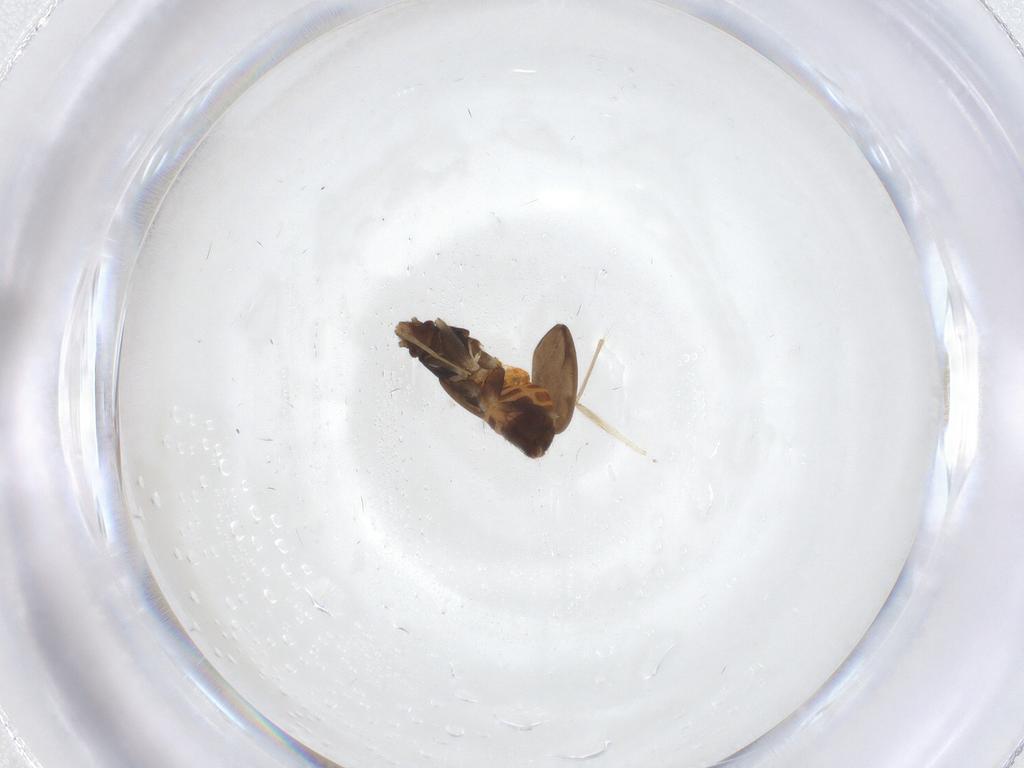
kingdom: Animalia
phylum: Arthropoda
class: Insecta
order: Hemiptera
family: Ceratocombidae
